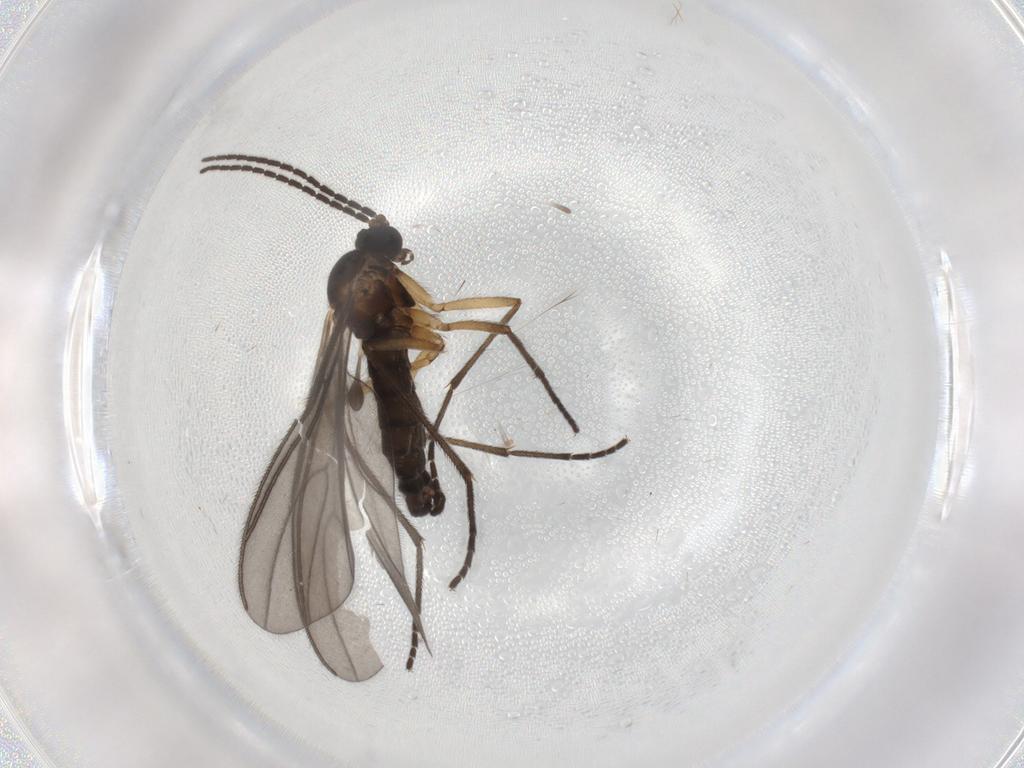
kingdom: Animalia
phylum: Arthropoda
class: Insecta
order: Diptera
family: Sciaridae
